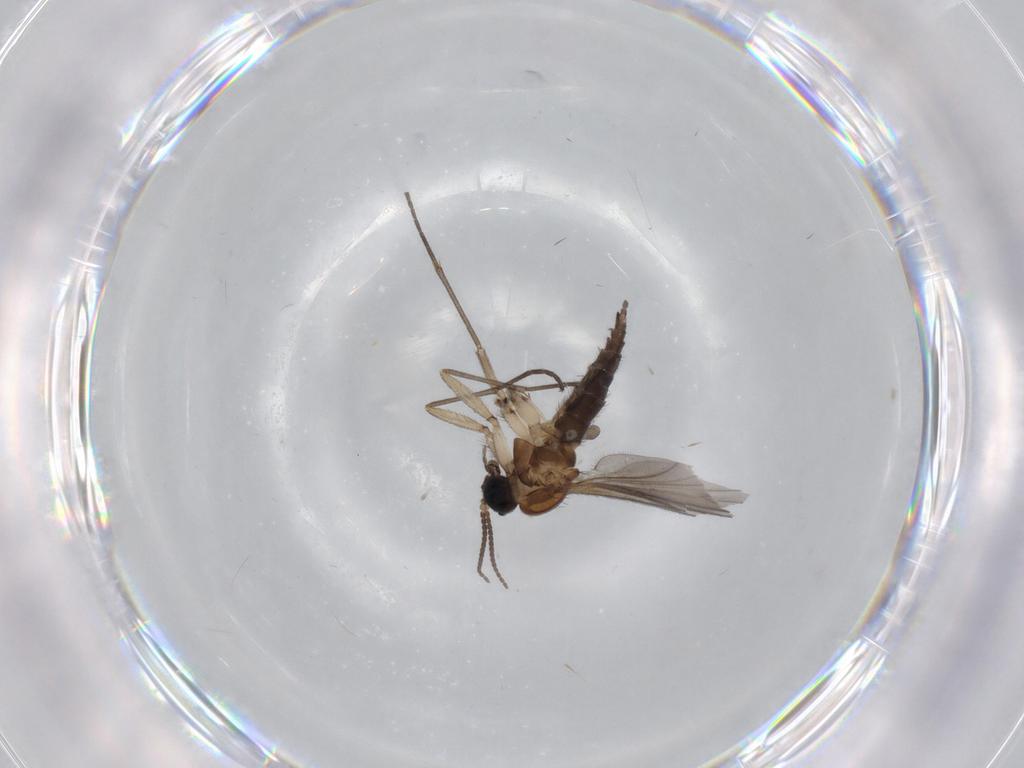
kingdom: Animalia
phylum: Arthropoda
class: Insecta
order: Diptera
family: Sciaridae
